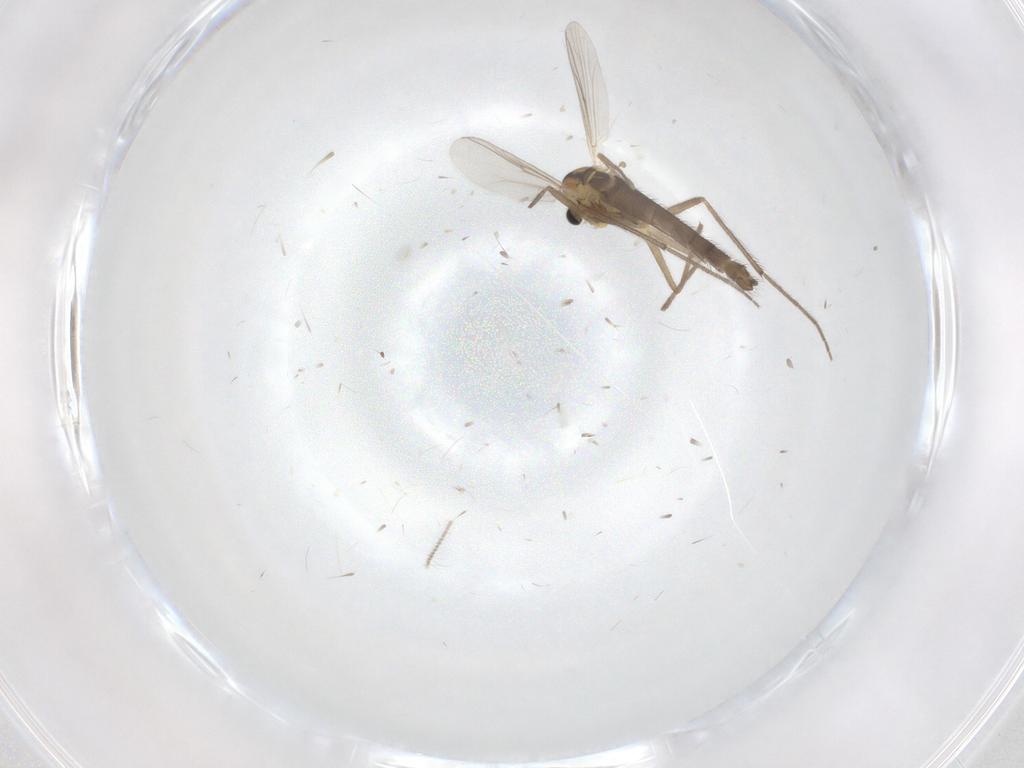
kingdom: Animalia
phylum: Arthropoda
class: Insecta
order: Diptera
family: Chironomidae
